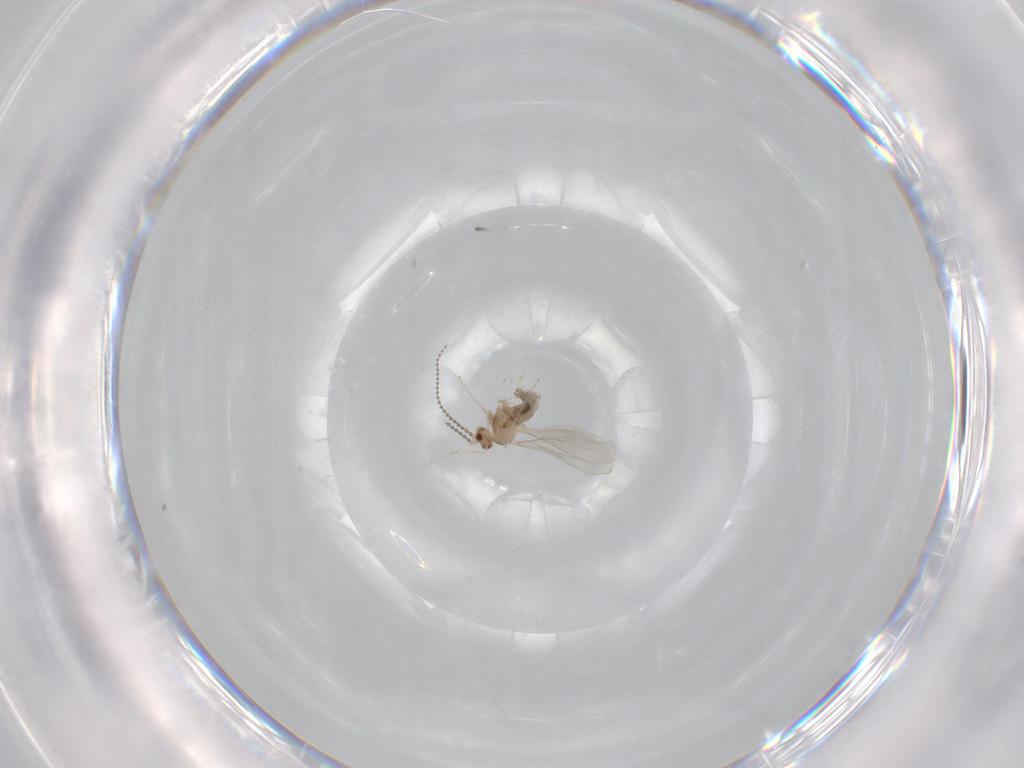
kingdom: Animalia
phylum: Arthropoda
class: Insecta
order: Diptera
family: Cecidomyiidae
